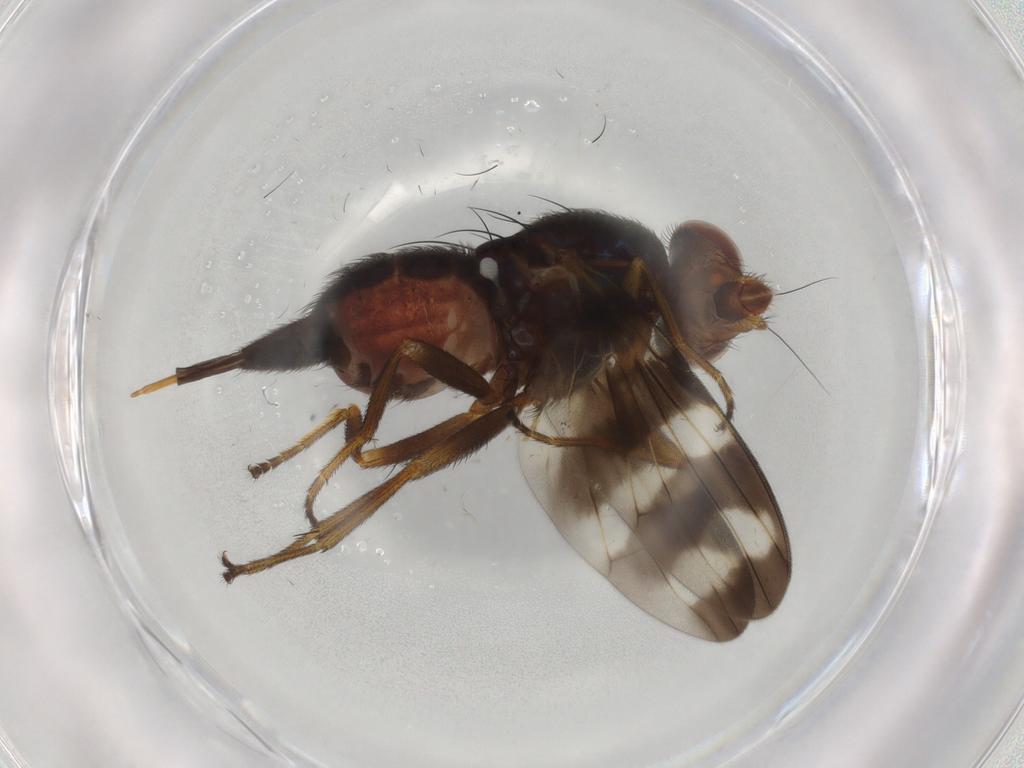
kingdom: Animalia
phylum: Arthropoda
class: Insecta
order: Diptera
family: Ulidiidae
